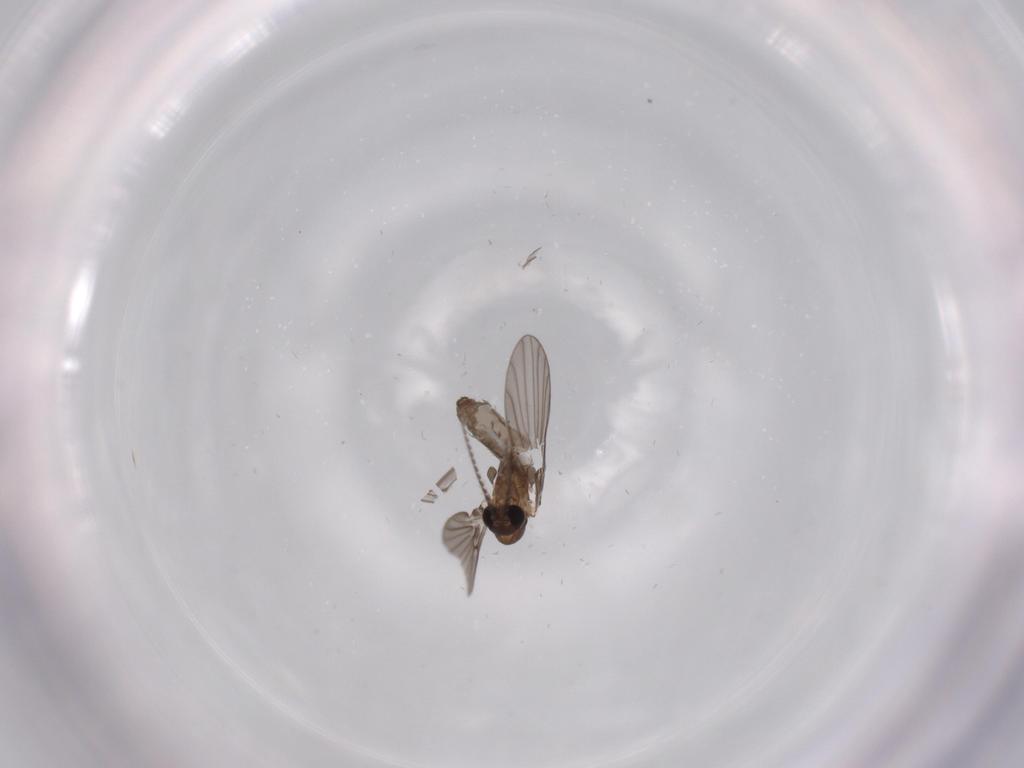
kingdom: Animalia
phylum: Arthropoda
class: Insecta
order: Diptera
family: Psychodidae
